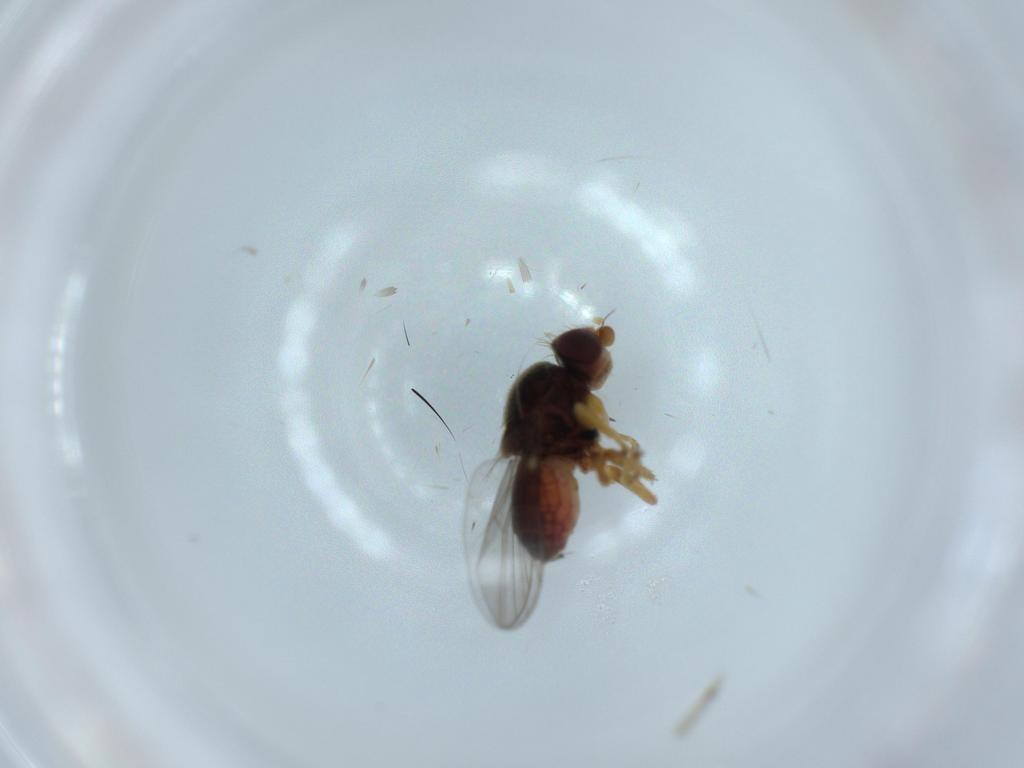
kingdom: Animalia
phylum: Arthropoda
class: Insecta
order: Diptera
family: Chloropidae
